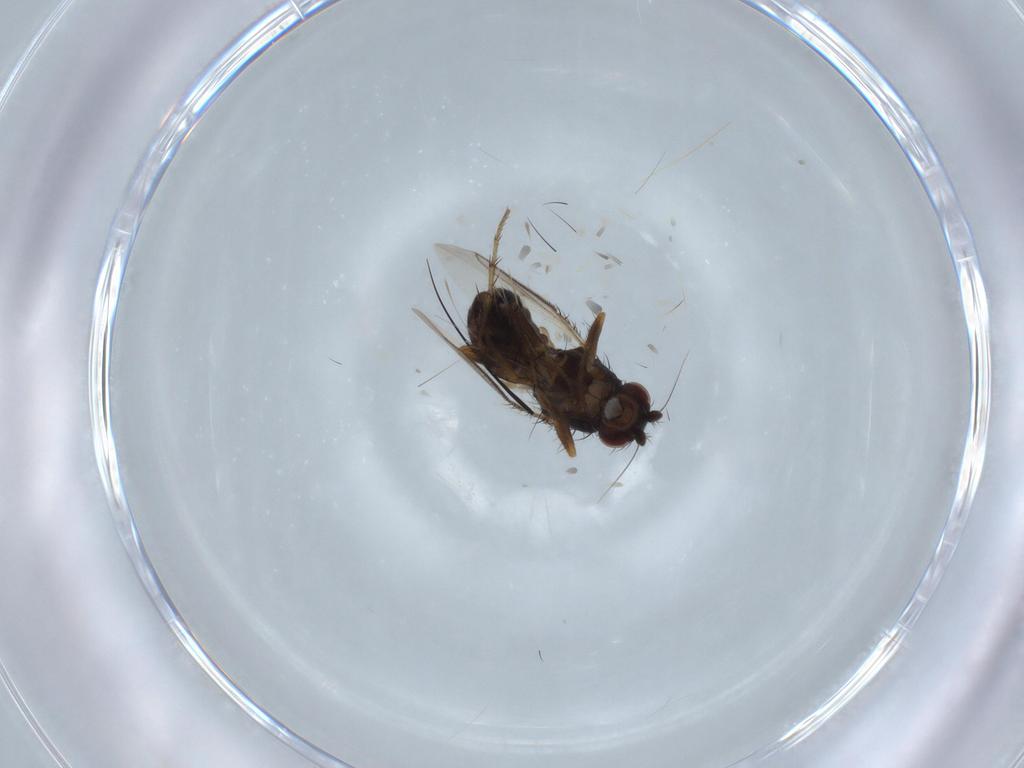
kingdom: Animalia
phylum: Arthropoda
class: Insecta
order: Diptera
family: Sphaeroceridae
